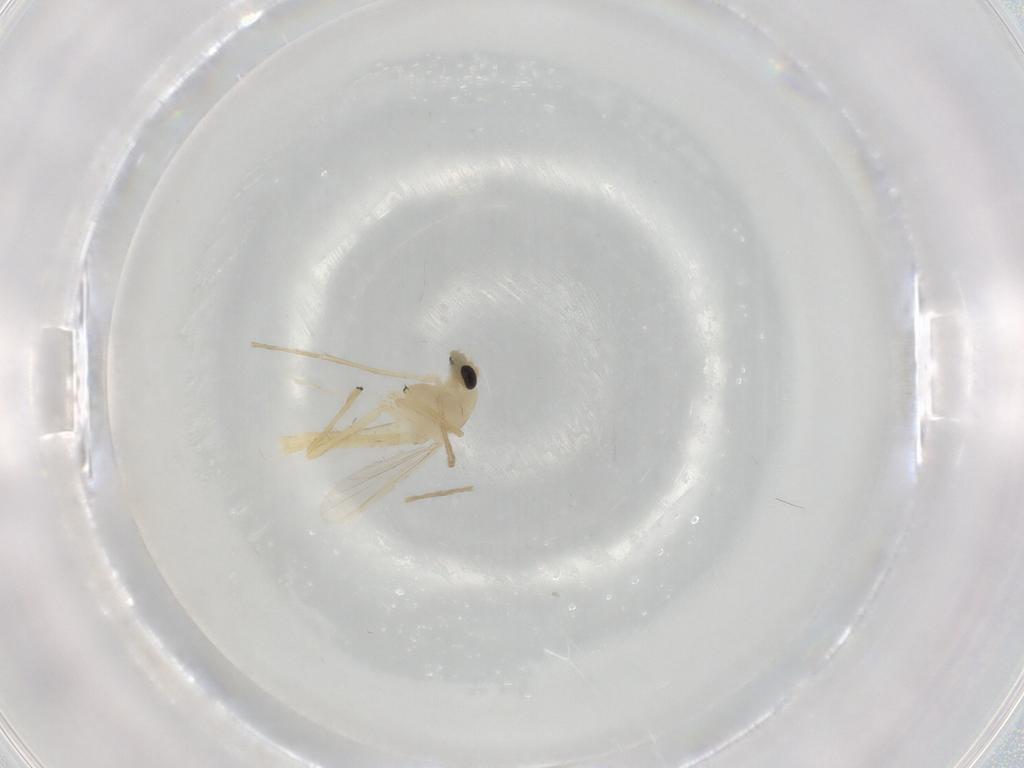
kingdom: Animalia
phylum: Arthropoda
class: Insecta
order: Diptera
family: Chironomidae
